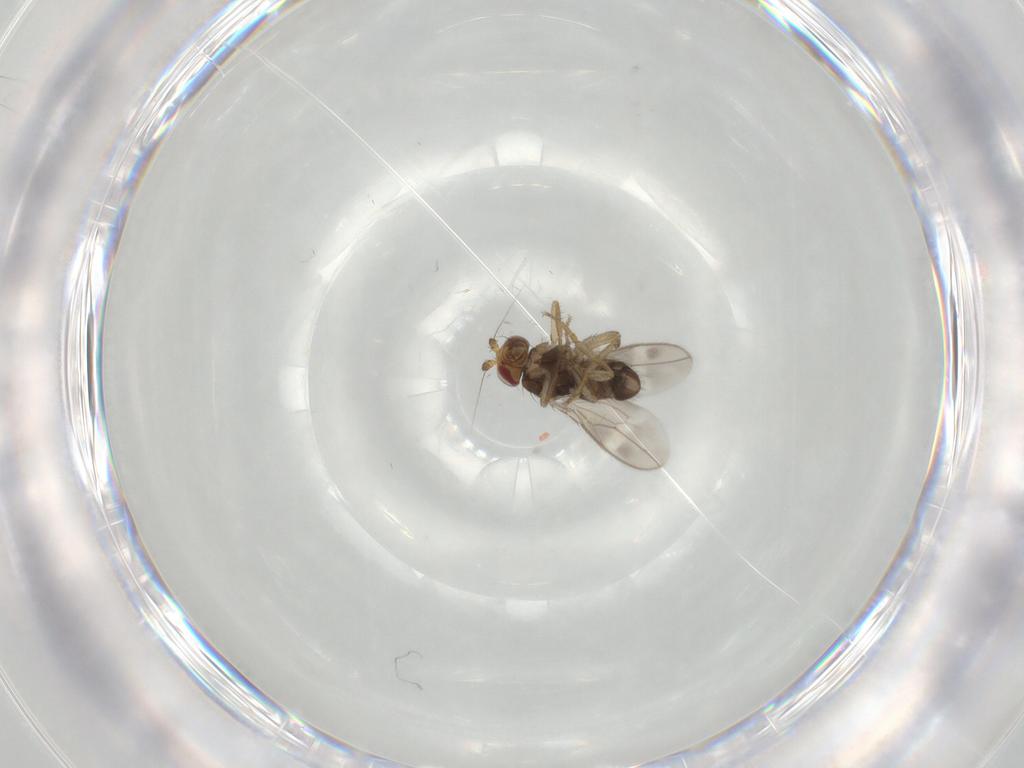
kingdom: Animalia
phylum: Arthropoda
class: Insecta
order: Diptera
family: Sphaeroceridae
